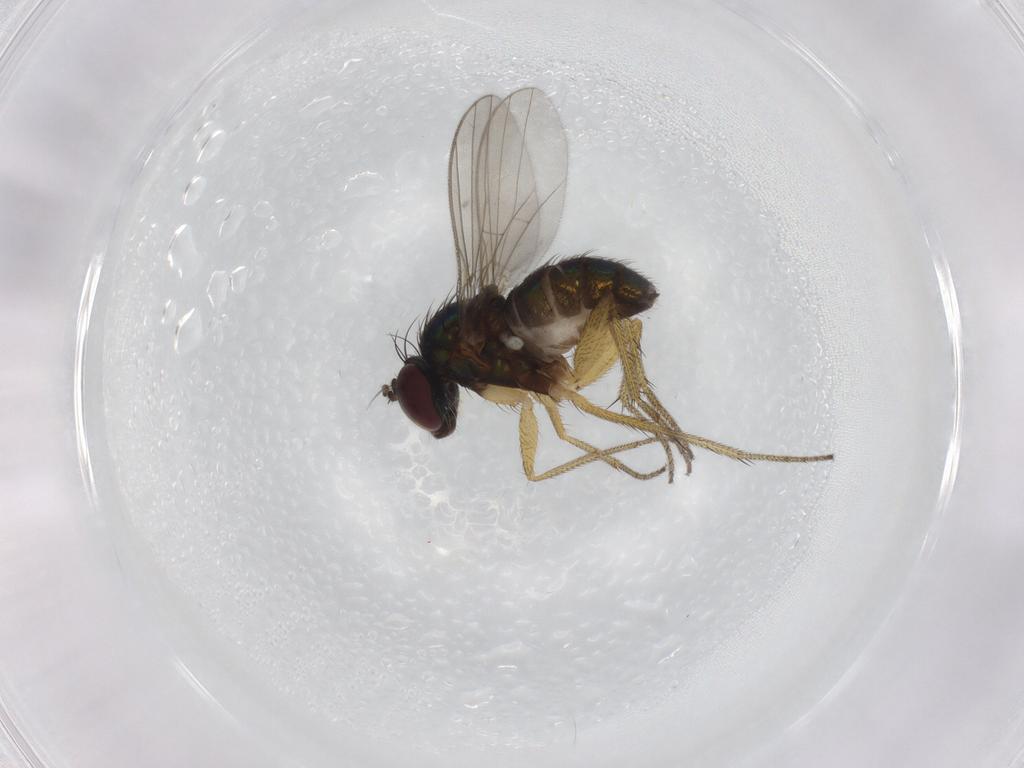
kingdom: Animalia
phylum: Arthropoda
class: Insecta
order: Diptera
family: Dolichopodidae
